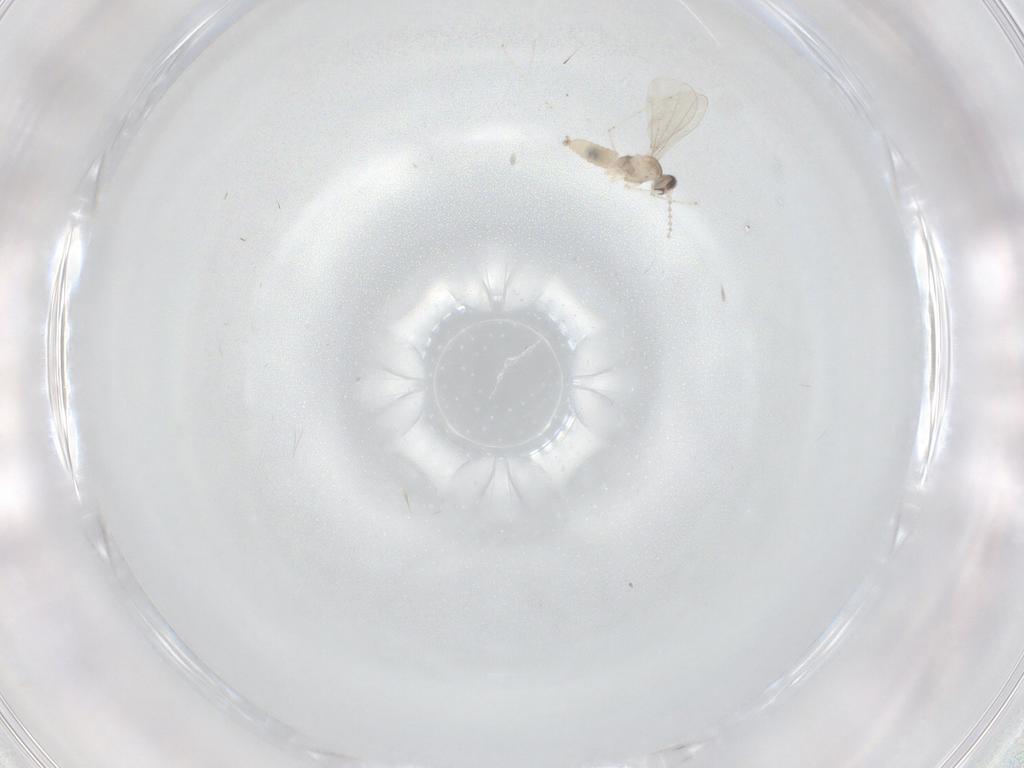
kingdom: Animalia
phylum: Arthropoda
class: Insecta
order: Diptera
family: Cecidomyiidae
